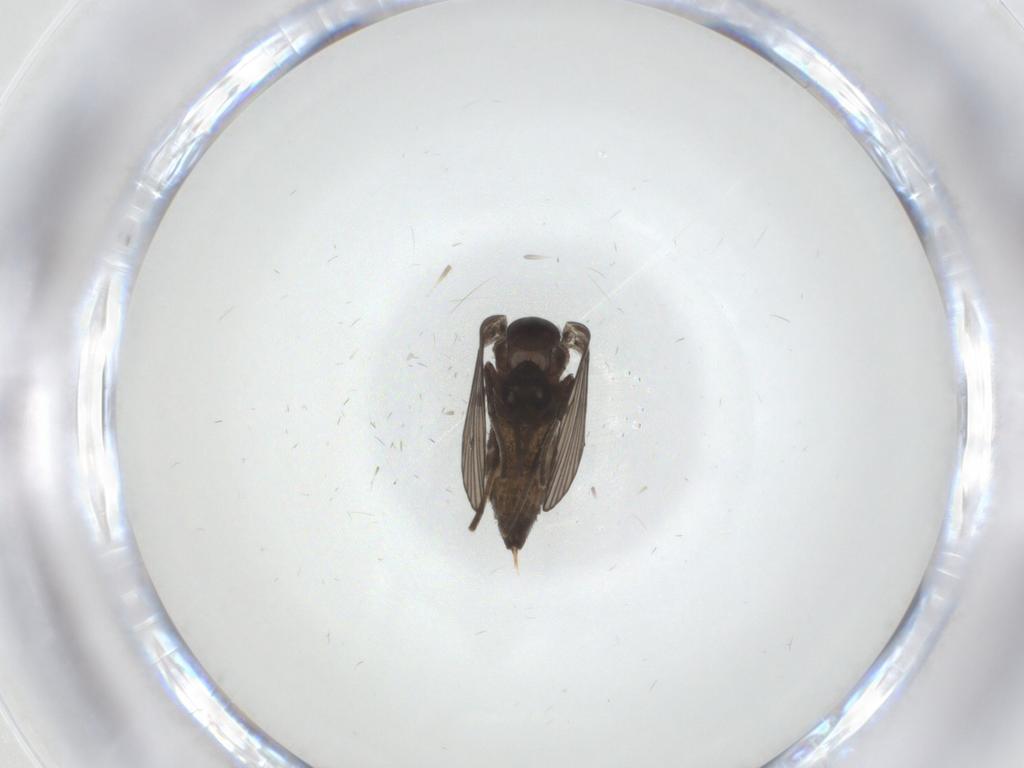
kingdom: Animalia
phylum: Arthropoda
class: Insecta
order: Diptera
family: Psychodidae
